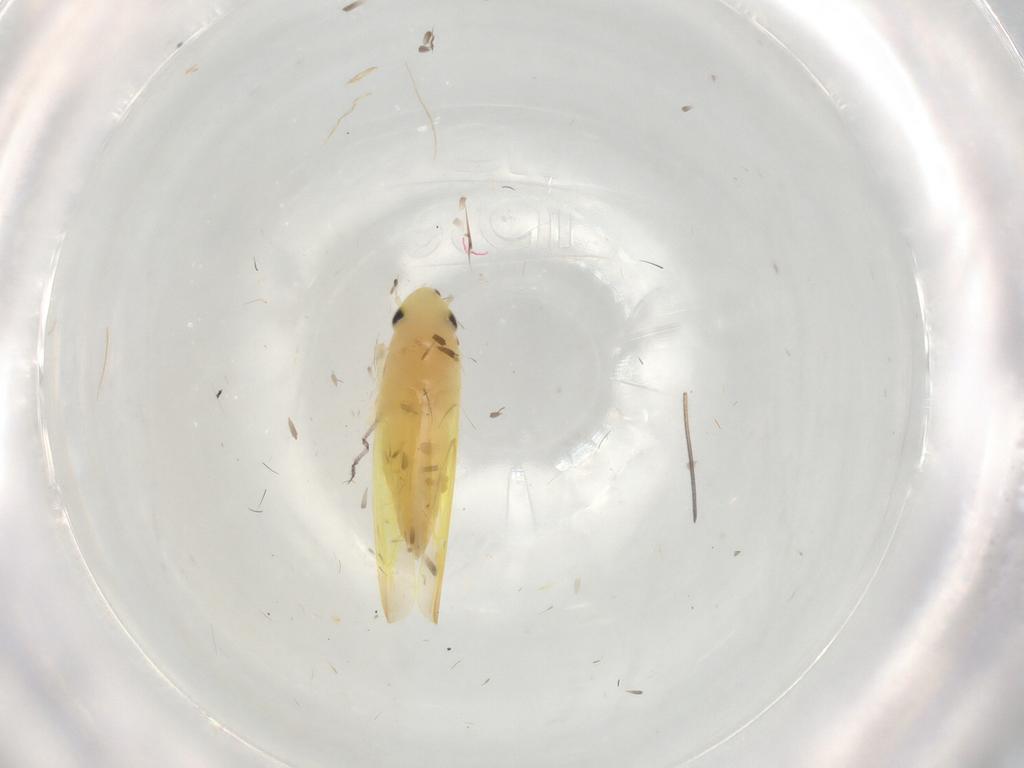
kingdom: Animalia
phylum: Arthropoda
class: Insecta
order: Hemiptera
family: Cicadellidae
